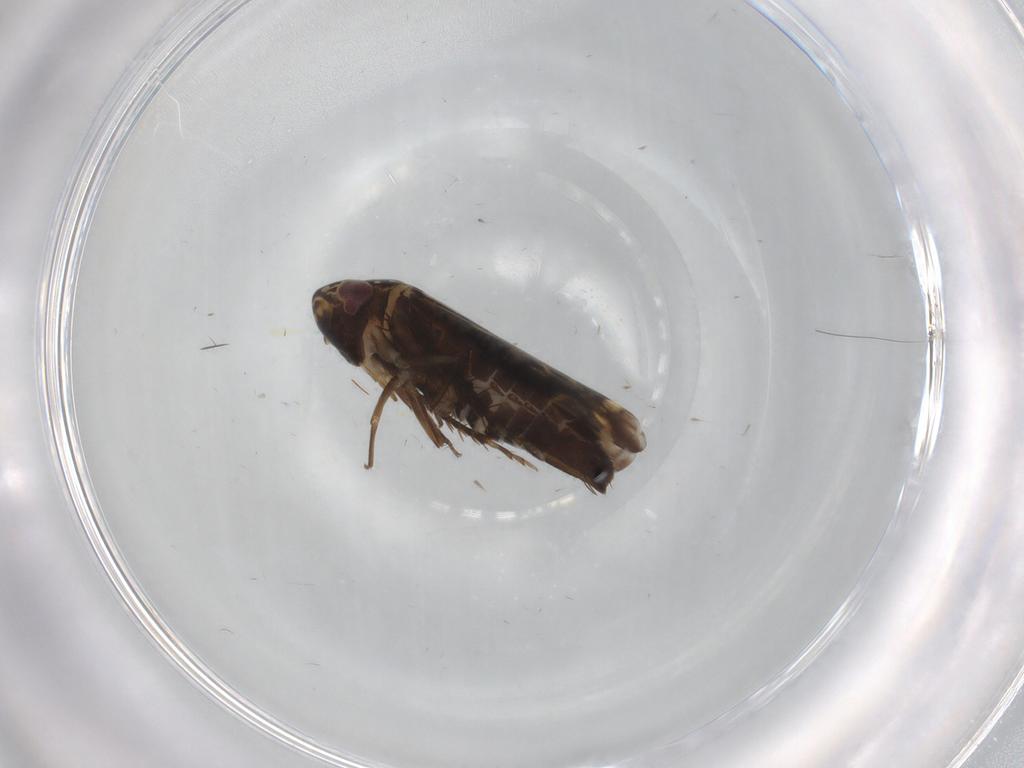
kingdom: Animalia
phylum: Arthropoda
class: Insecta
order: Hemiptera
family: Cicadellidae
